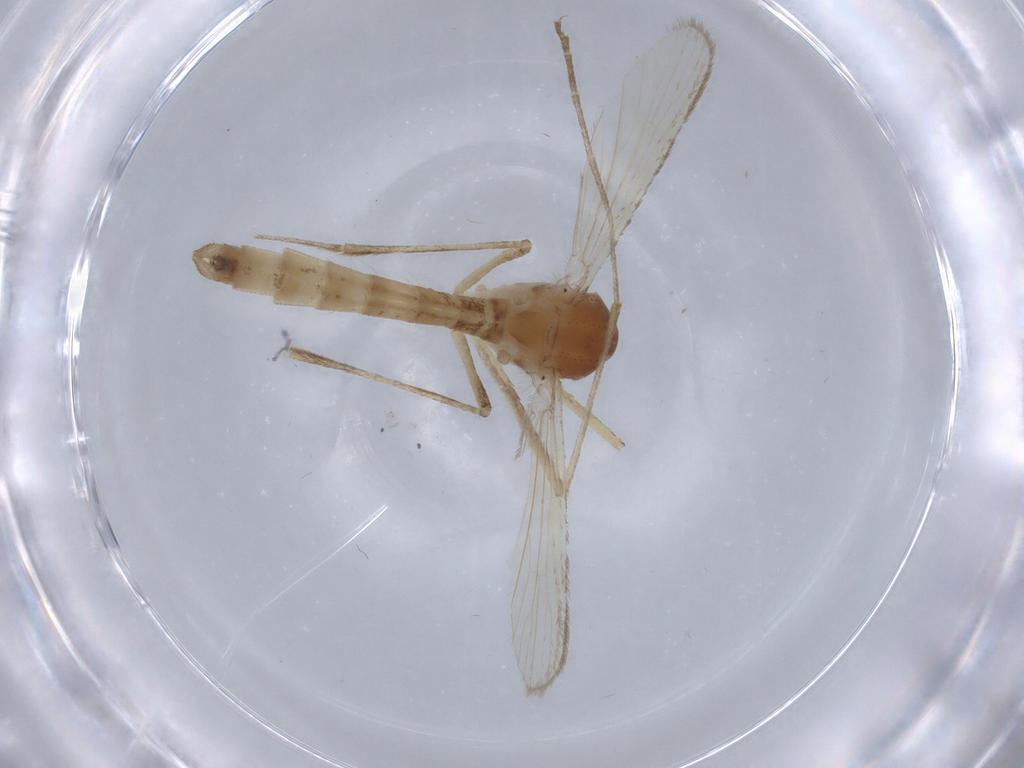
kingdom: Animalia
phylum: Arthropoda
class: Insecta
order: Diptera
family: Culicidae
